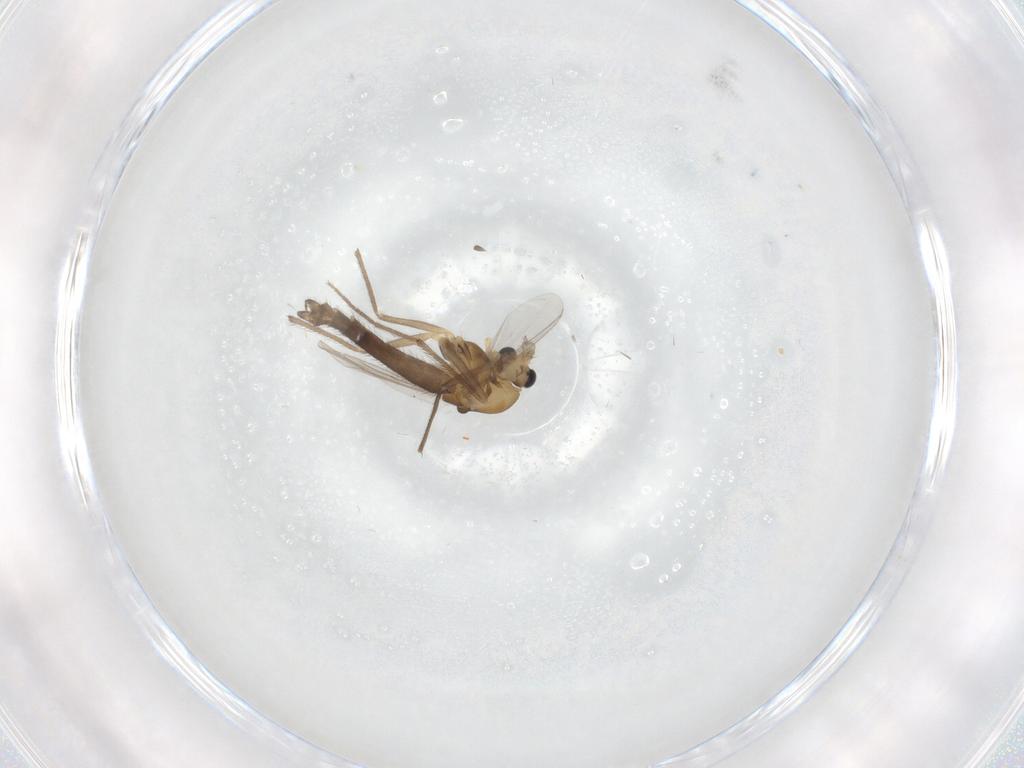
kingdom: Animalia
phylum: Arthropoda
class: Insecta
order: Diptera
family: Chironomidae
